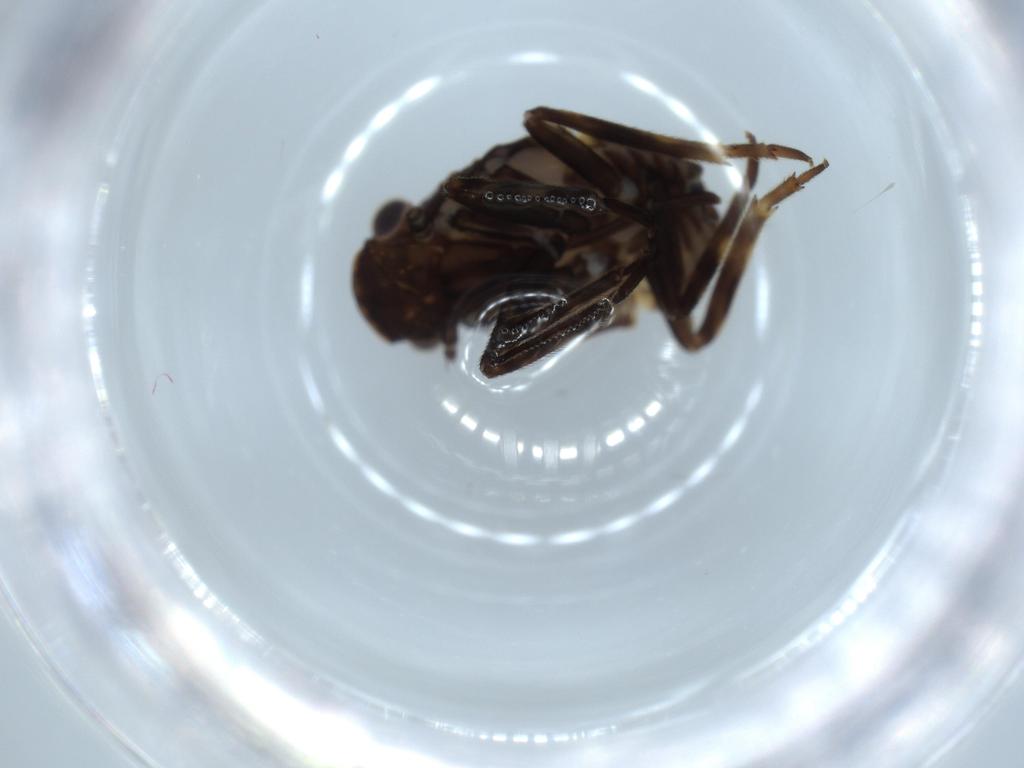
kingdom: Animalia
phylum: Arthropoda
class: Insecta
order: Hemiptera
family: Fulgoridae
